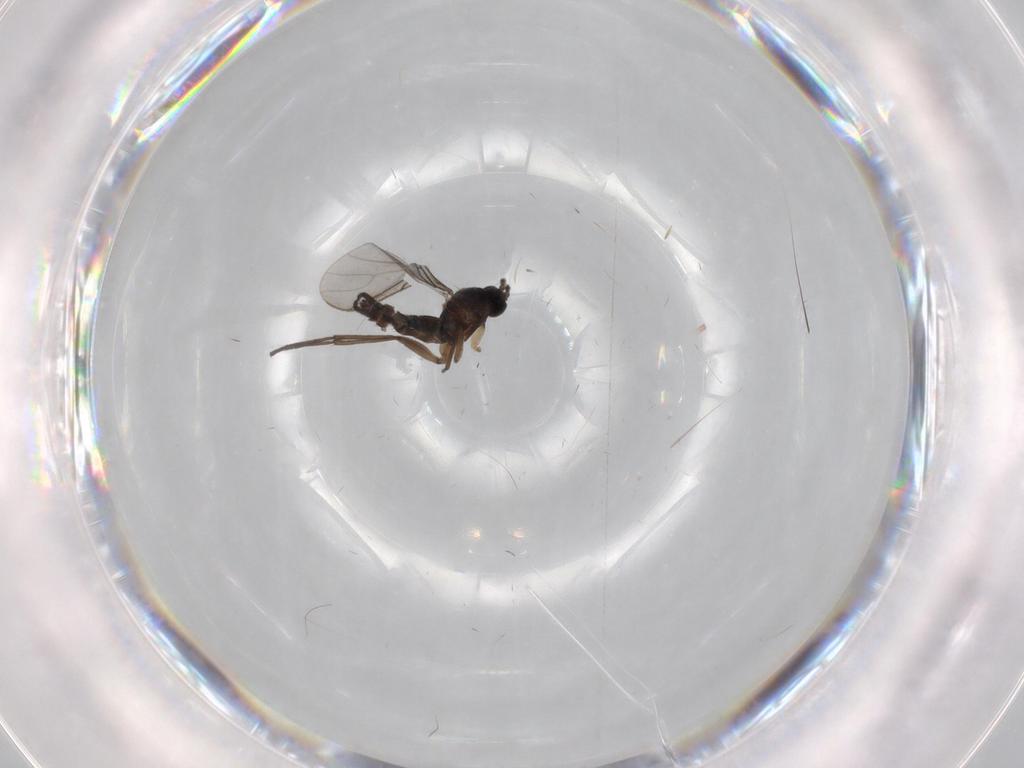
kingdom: Animalia
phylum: Arthropoda
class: Insecta
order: Diptera
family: Sciaridae
